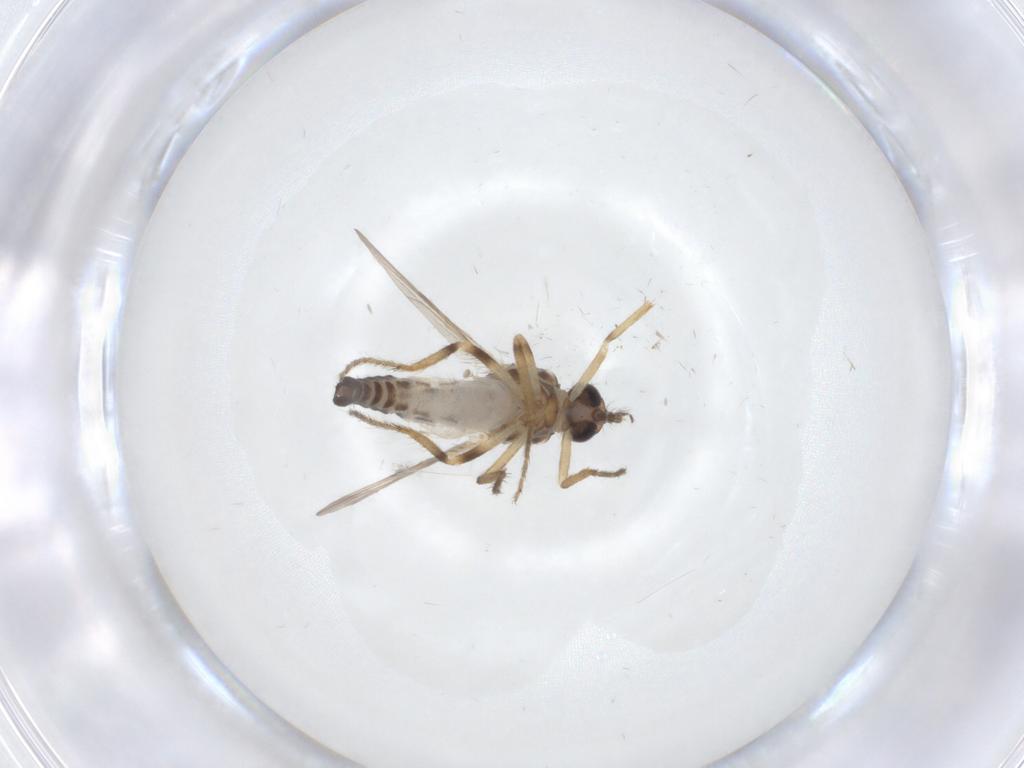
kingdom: Animalia
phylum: Arthropoda
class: Insecta
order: Diptera
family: Ceratopogonidae
